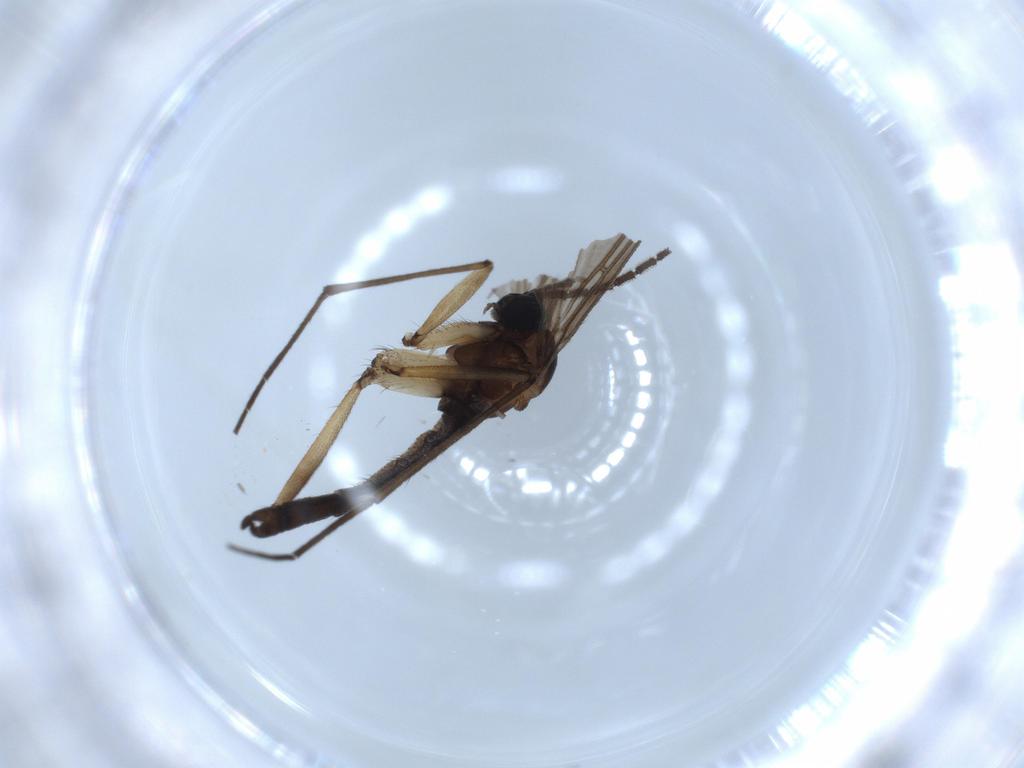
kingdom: Animalia
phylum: Arthropoda
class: Insecta
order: Diptera
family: Sciaridae
